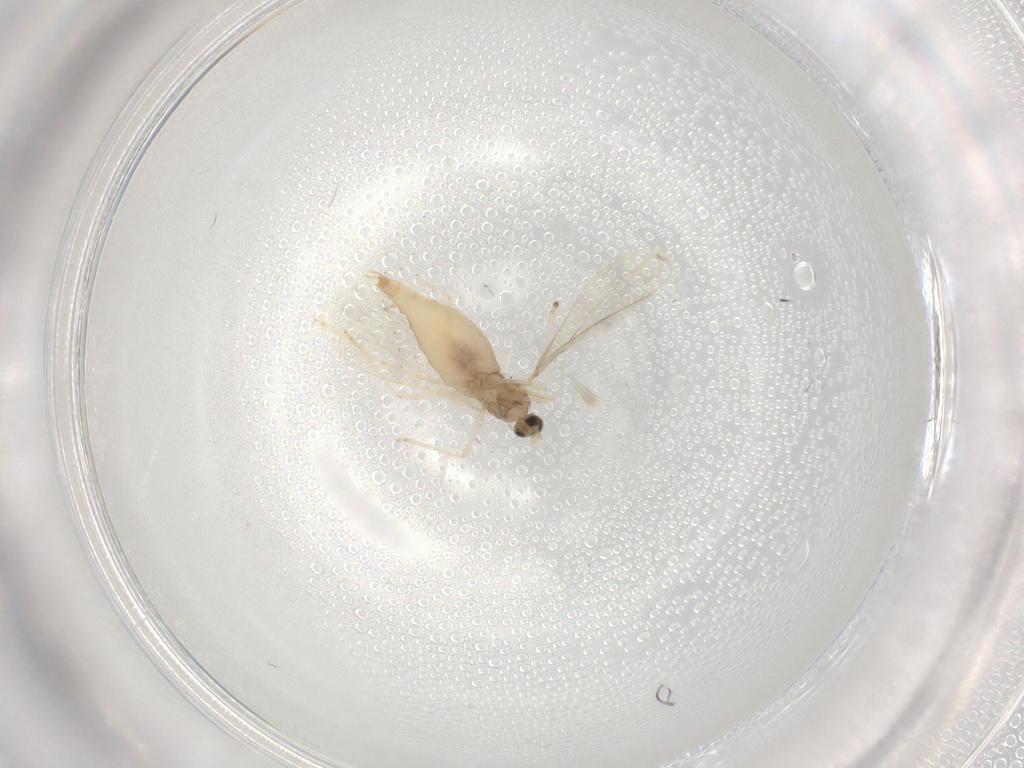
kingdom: Animalia
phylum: Arthropoda
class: Insecta
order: Diptera
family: Cecidomyiidae
